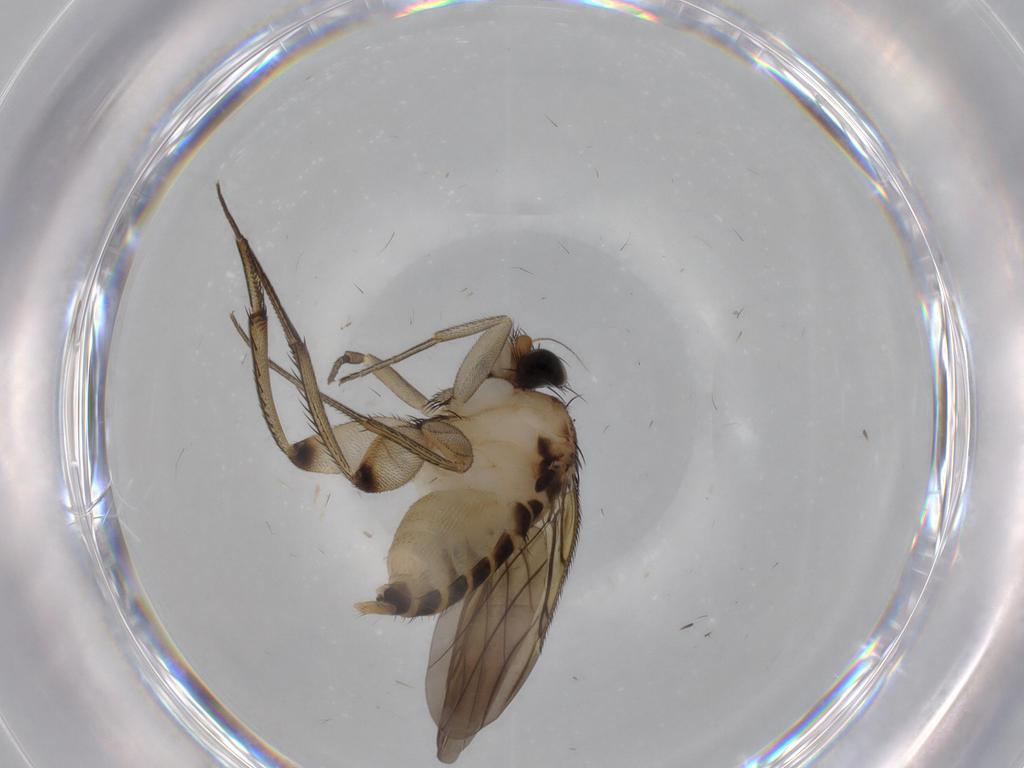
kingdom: Animalia
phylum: Arthropoda
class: Insecta
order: Diptera
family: Phoridae
